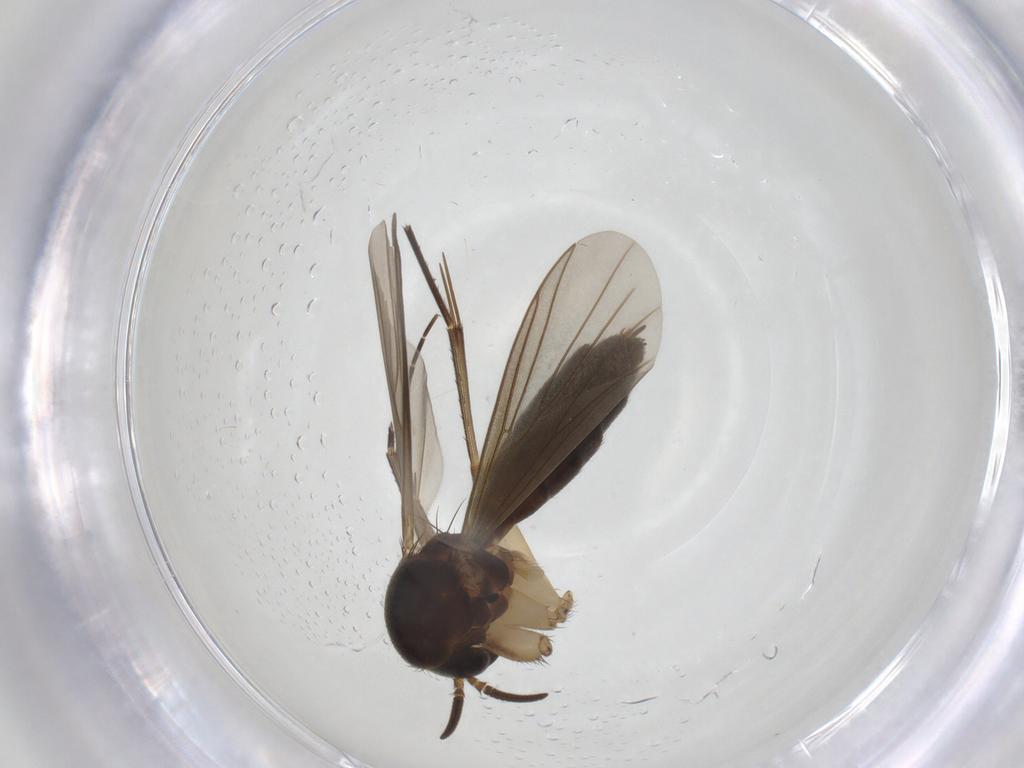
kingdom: Animalia
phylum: Arthropoda
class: Insecta
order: Diptera
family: Mycetophilidae
